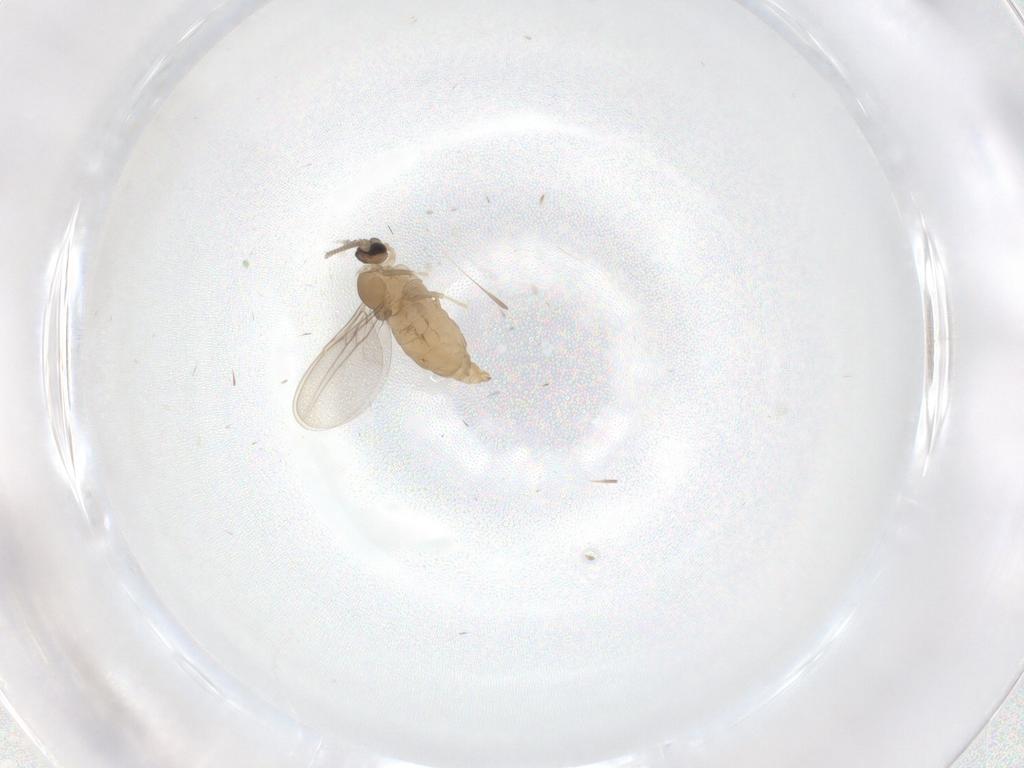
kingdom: Animalia
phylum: Arthropoda
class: Insecta
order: Diptera
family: Cecidomyiidae
